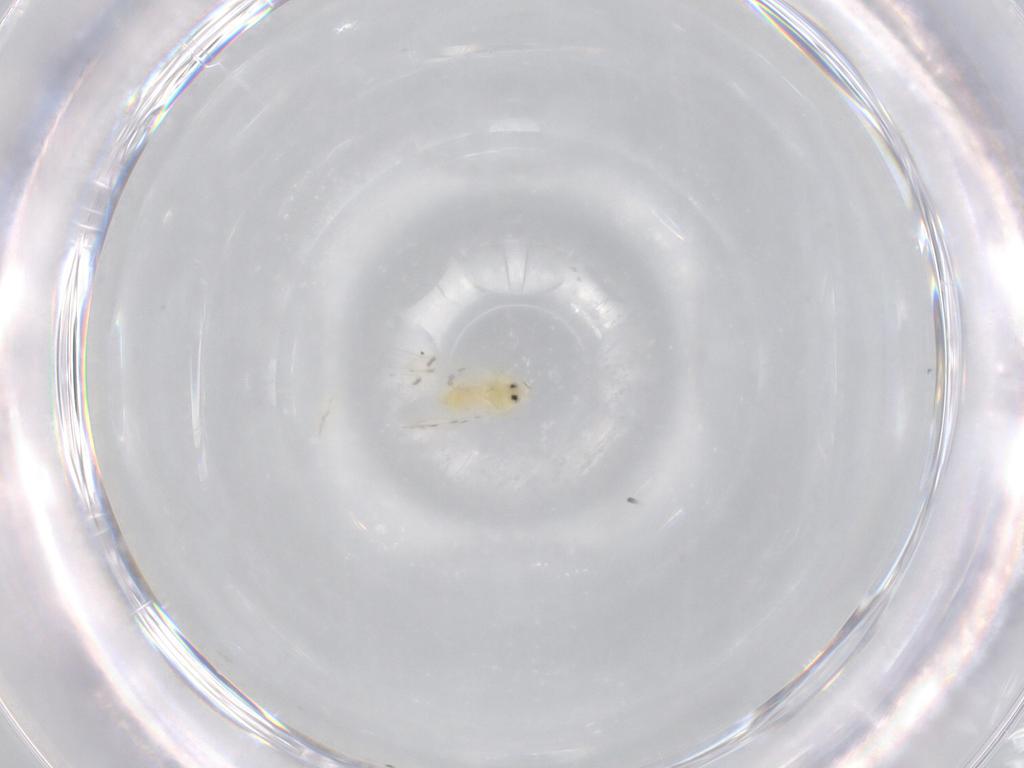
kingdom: Animalia
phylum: Arthropoda
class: Insecta
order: Hemiptera
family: Aleyrodidae
